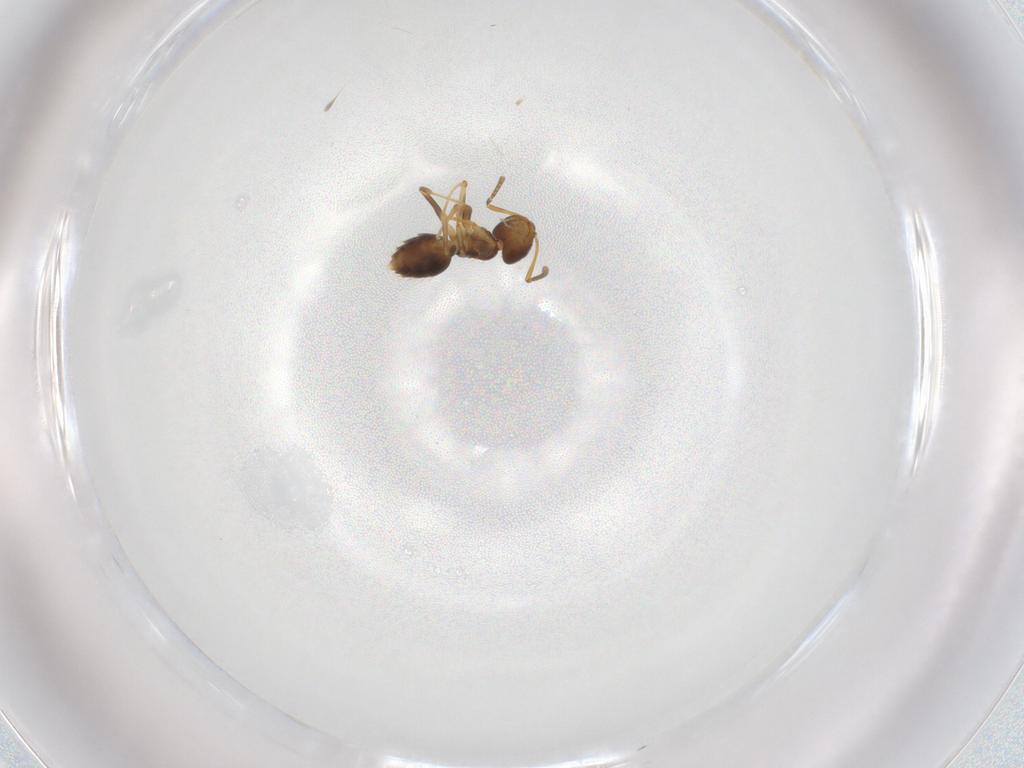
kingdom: Animalia
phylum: Arthropoda
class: Insecta
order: Hymenoptera
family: Formicidae
